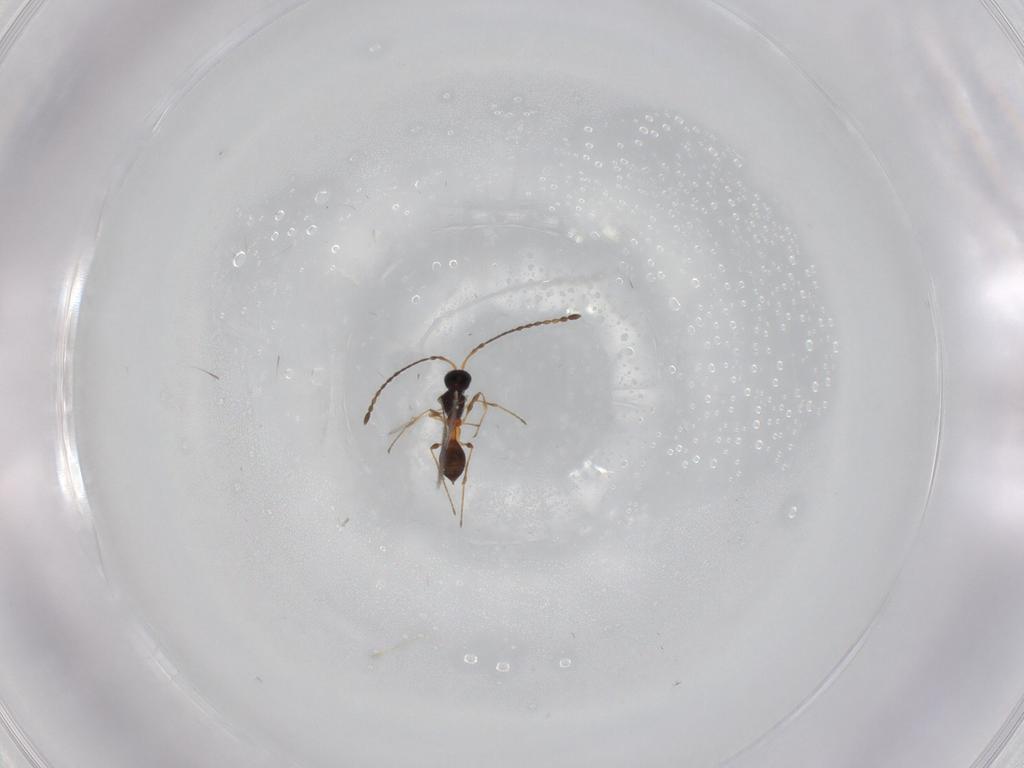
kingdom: Animalia
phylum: Arthropoda
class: Insecta
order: Hymenoptera
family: Diapriidae
